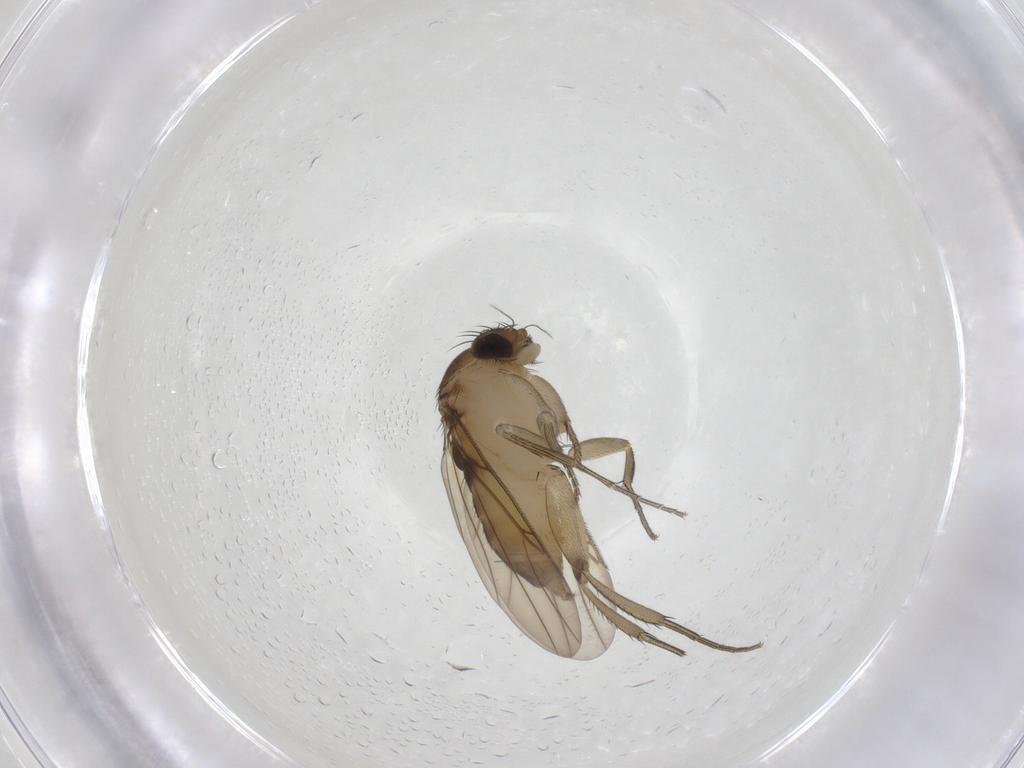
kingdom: Animalia
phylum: Arthropoda
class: Insecta
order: Diptera
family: Phoridae
